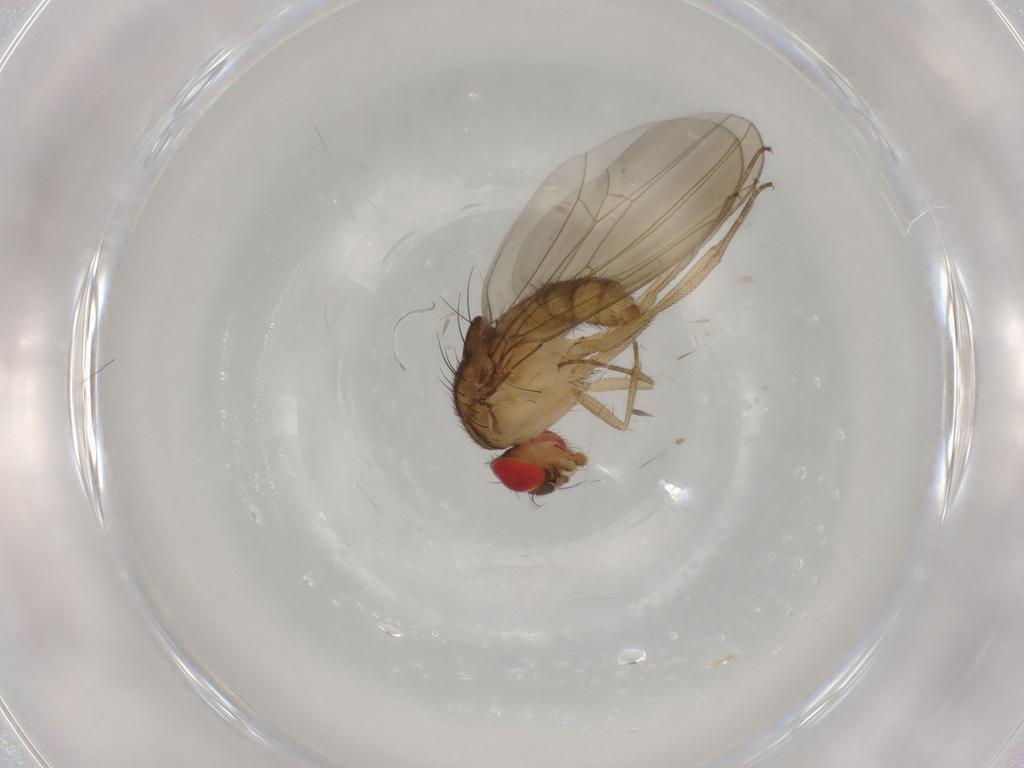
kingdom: Animalia
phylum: Arthropoda
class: Insecta
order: Diptera
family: Drosophilidae
